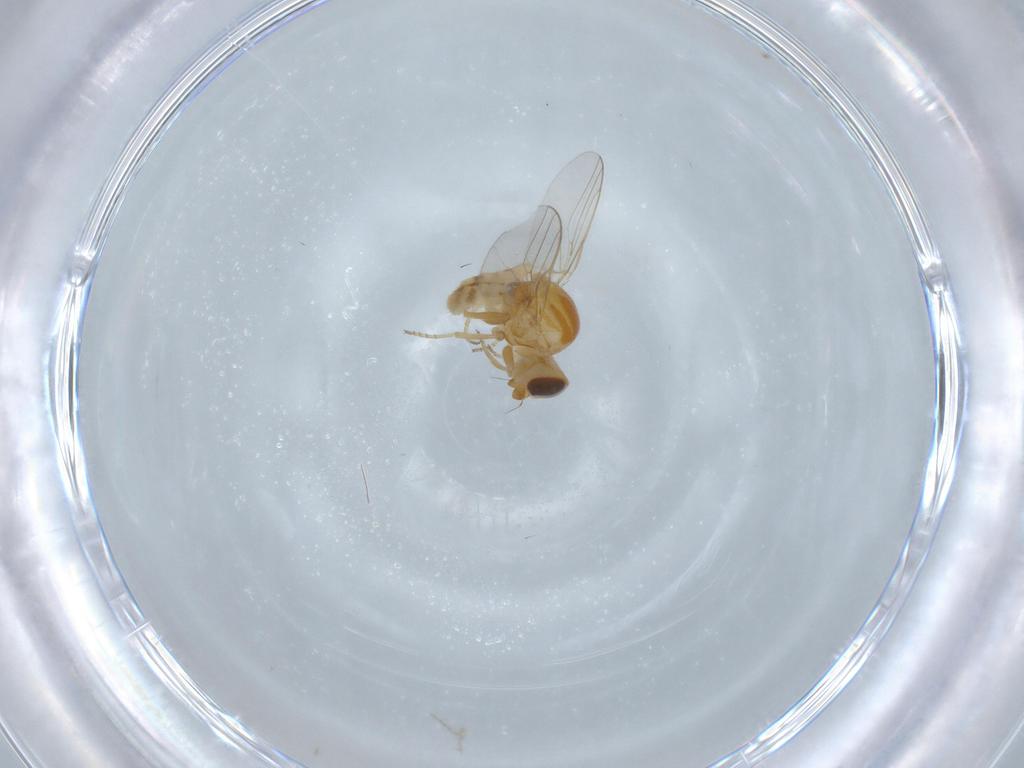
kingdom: Animalia
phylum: Arthropoda
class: Insecta
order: Diptera
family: Chloropidae
